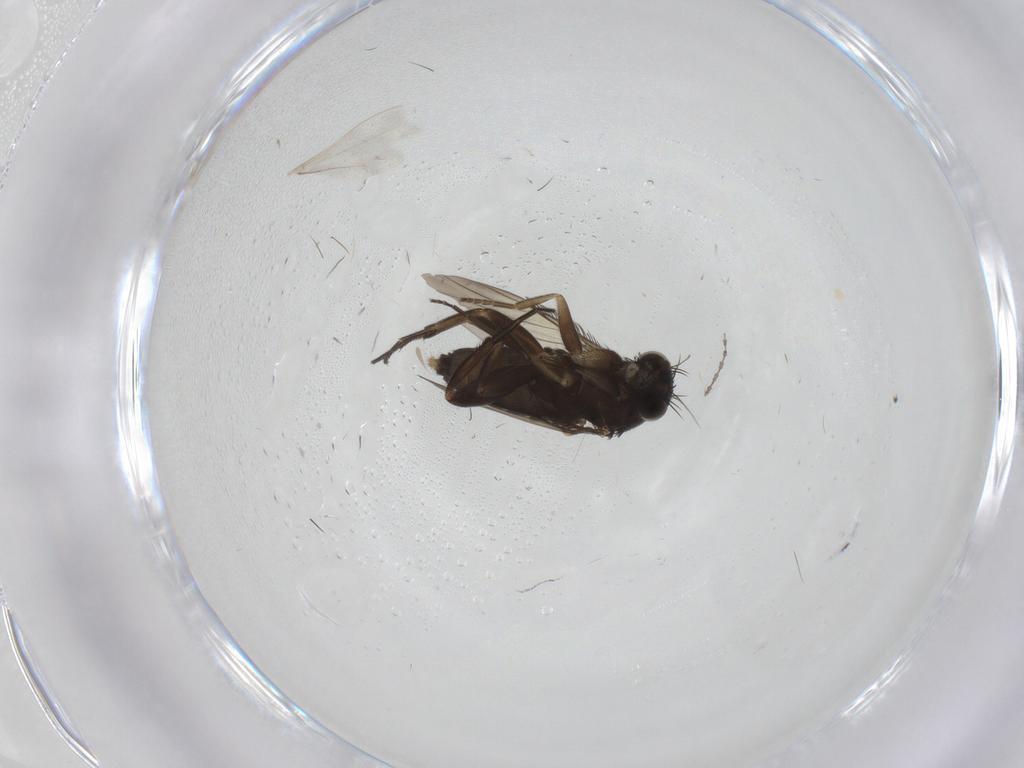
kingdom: Animalia
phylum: Arthropoda
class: Insecta
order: Diptera
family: Phoridae
